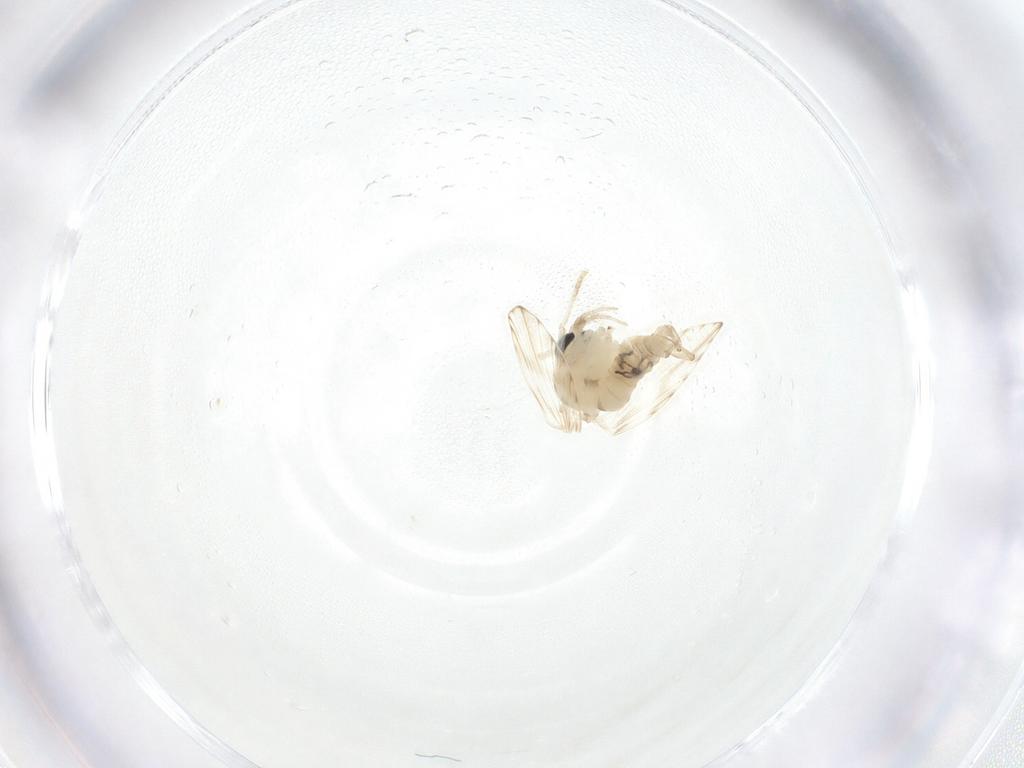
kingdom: Animalia
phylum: Arthropoda
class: Insecta
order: Diptera
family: Psychodidae
